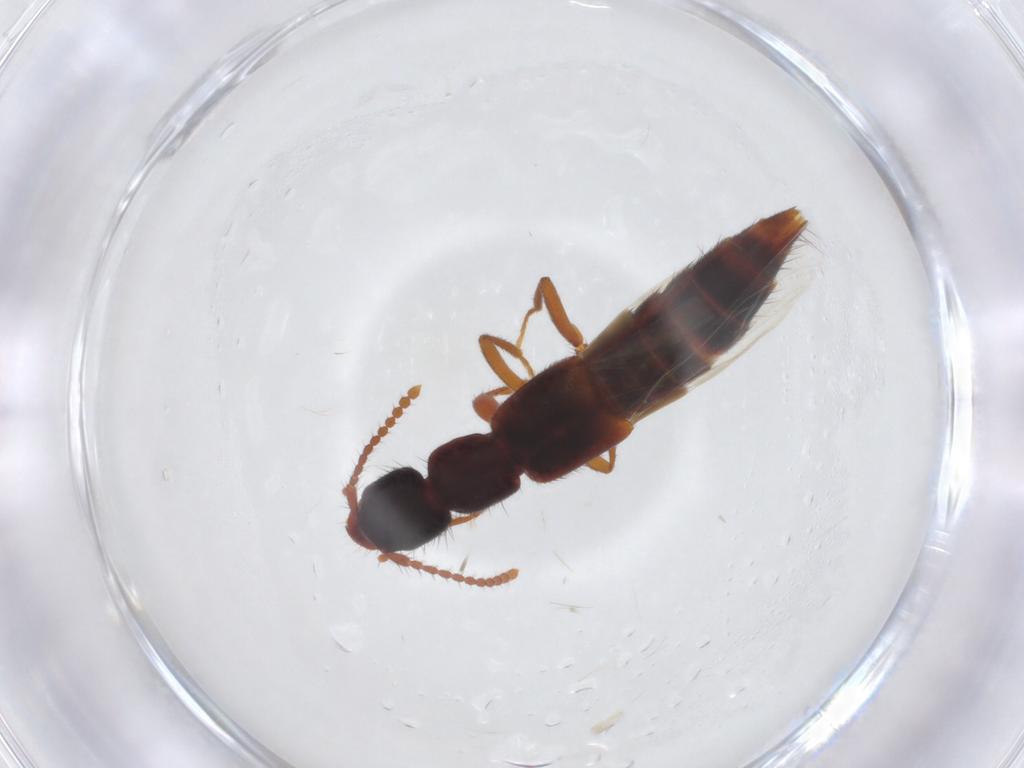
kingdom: Animalia
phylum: Arthropoda
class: Insecta
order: Coleoptera
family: Staphylinidae
